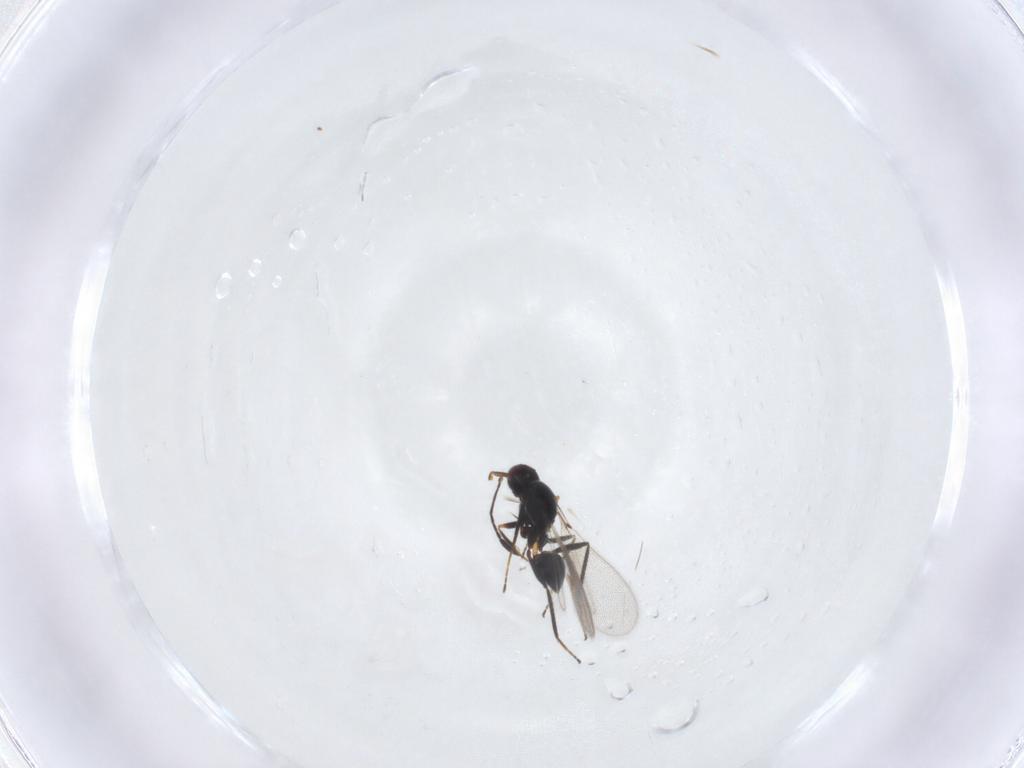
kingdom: Animalia
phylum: Arthropoda
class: Insecta
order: Hymenoptera
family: Mymaridae
